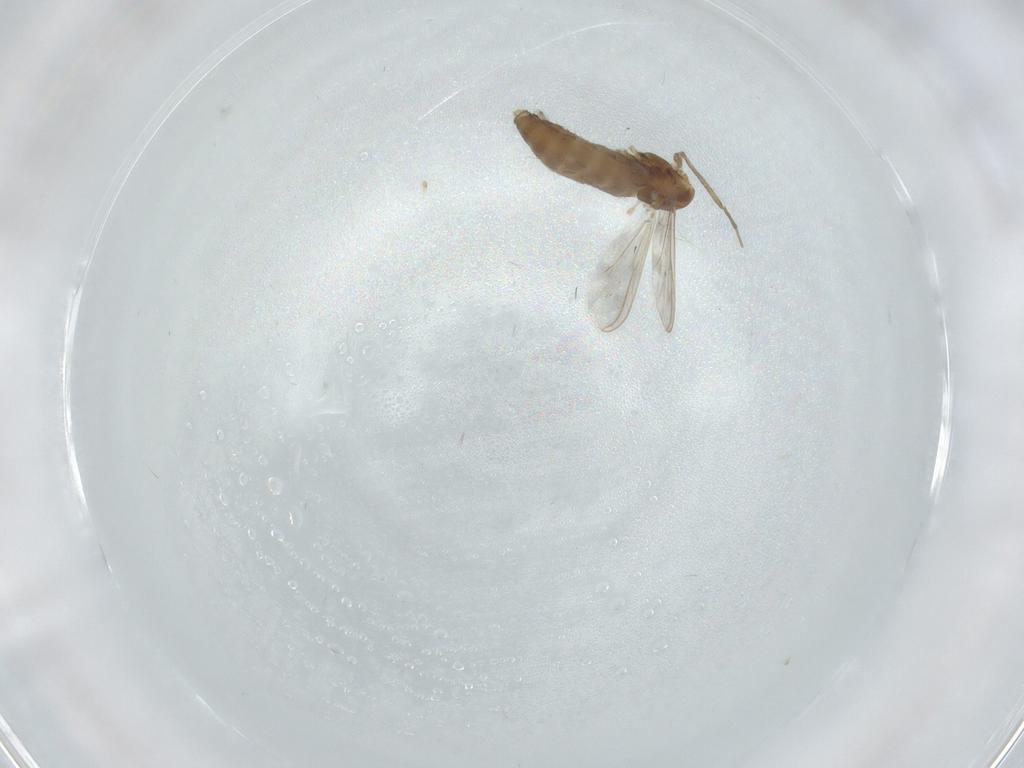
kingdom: Animalia
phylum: Arthropoda
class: Insecta
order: Diptera
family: Chironomidae
